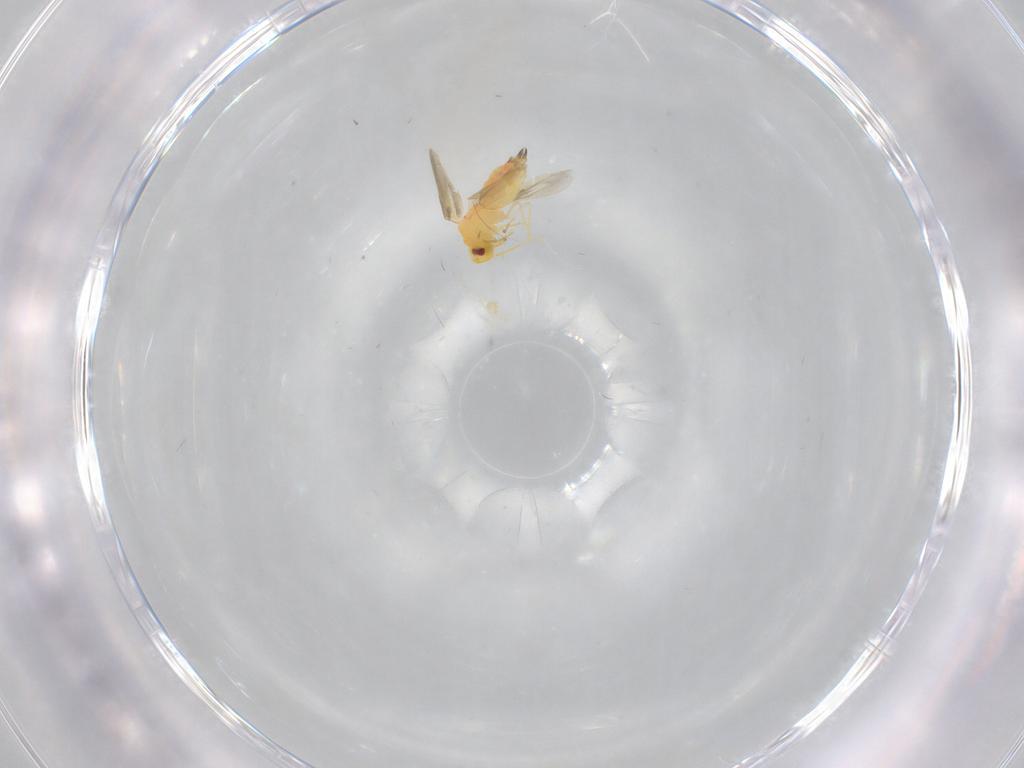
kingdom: Animalia
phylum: Arthropoda
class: Insecta
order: Hemiptera
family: Aleyrodidae
